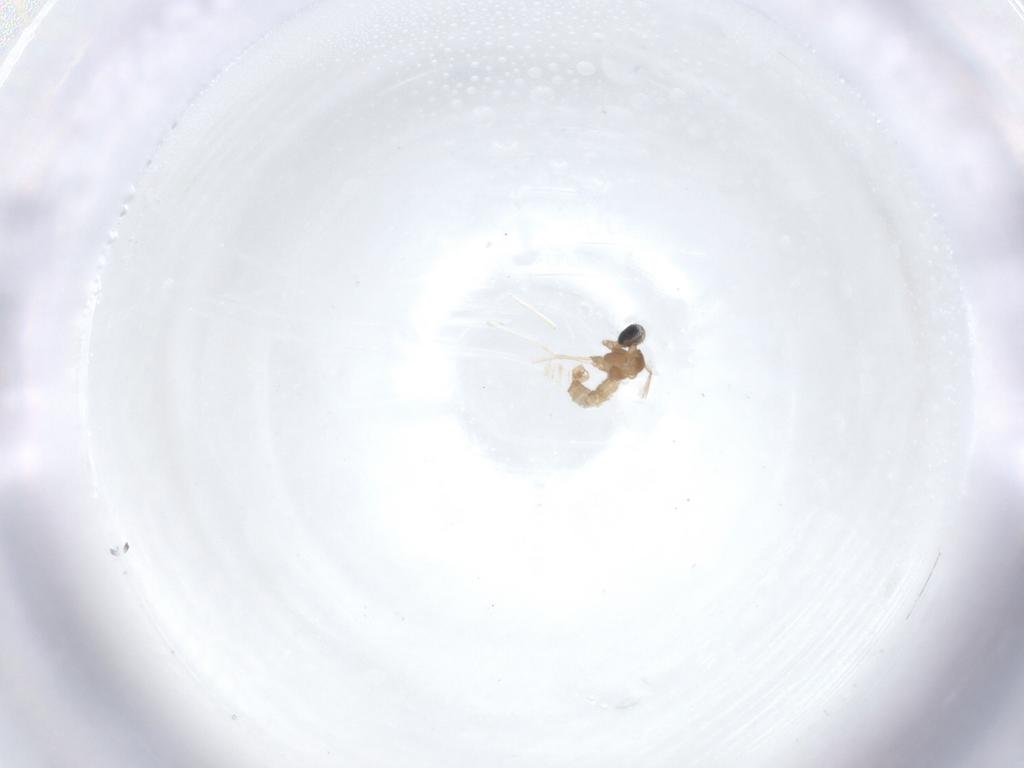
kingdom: Animalia
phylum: Arthropoda
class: Insecta
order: Diptera
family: Cecidomyiidae
